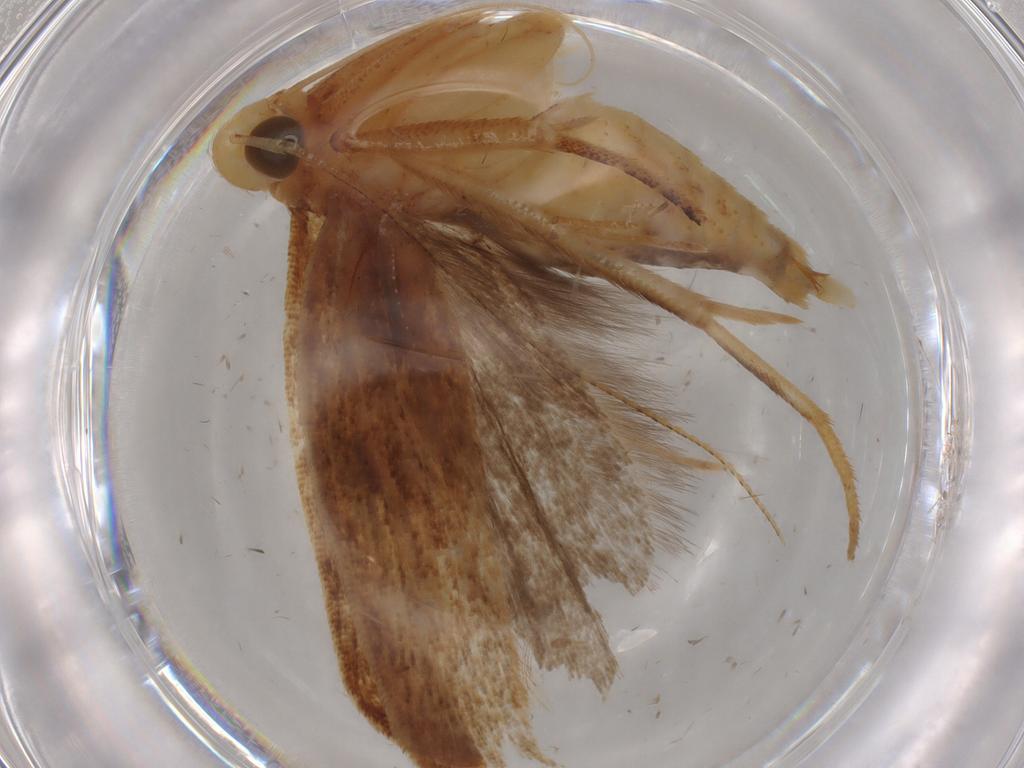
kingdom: Animalia
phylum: Arthropoda
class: Insecta
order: Lepidoptera
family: Gelechiidae
